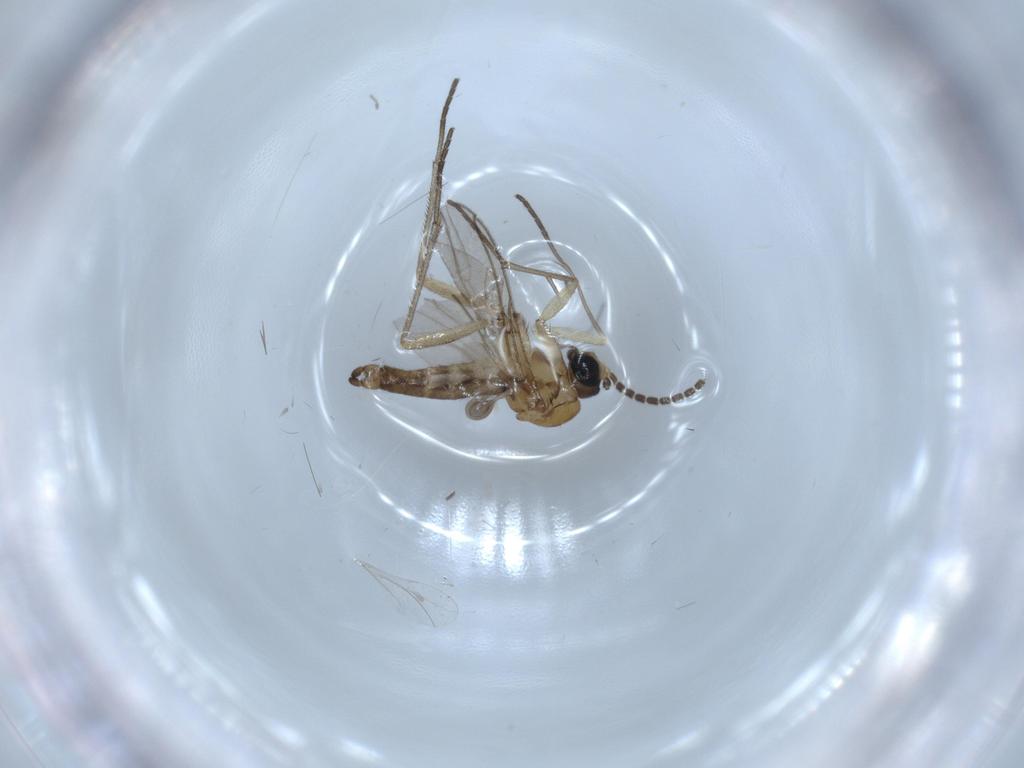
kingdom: Animalia
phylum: Arthropoda
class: Insecta
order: Diptera
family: Sciaridae
